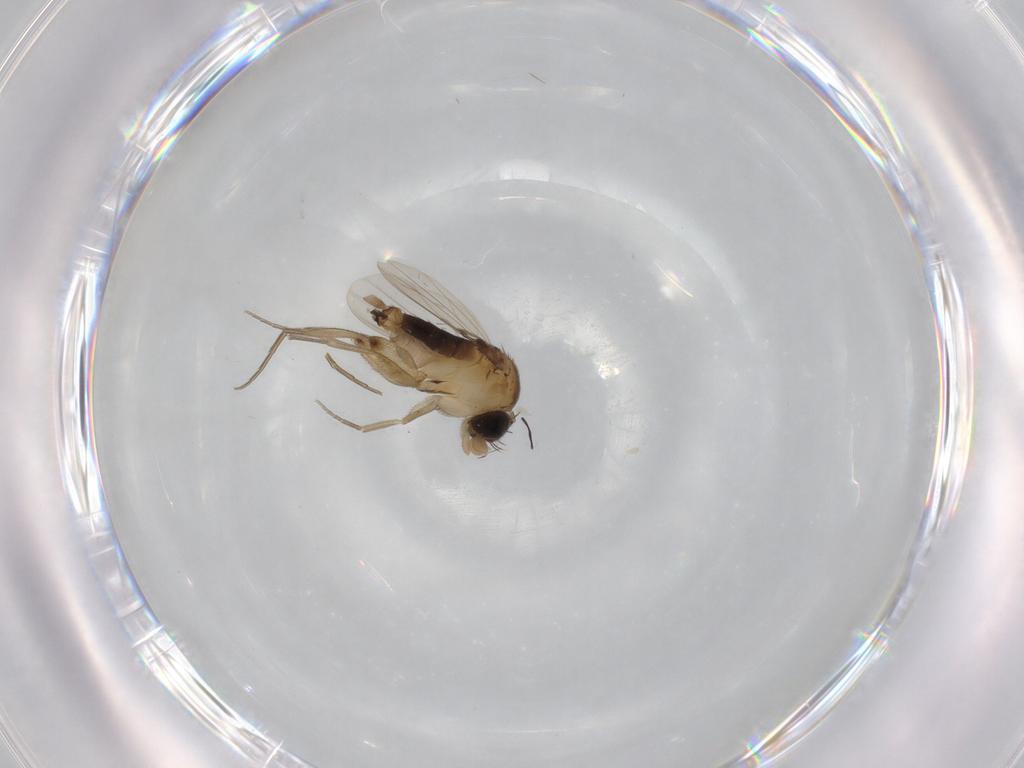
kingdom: Animalia
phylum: Arthropoda
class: Insecta
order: Diptera
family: Phoridae
